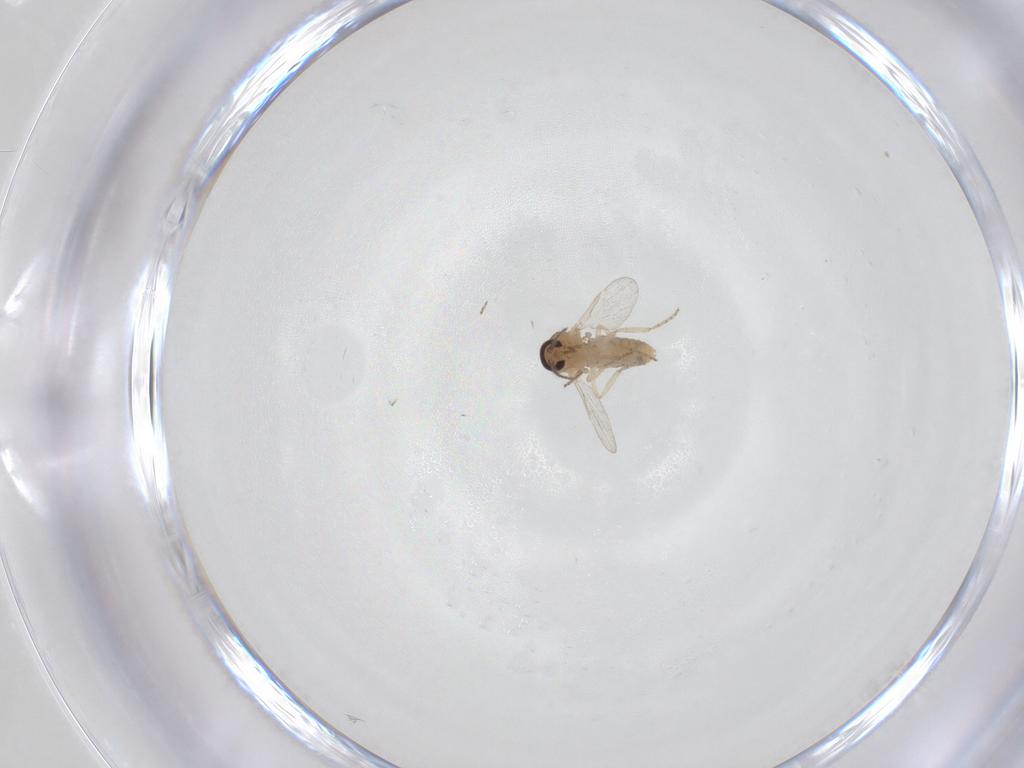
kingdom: Animalia
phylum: Arthropoda
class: Insecta
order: Diptera
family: Ceratopogonidae
